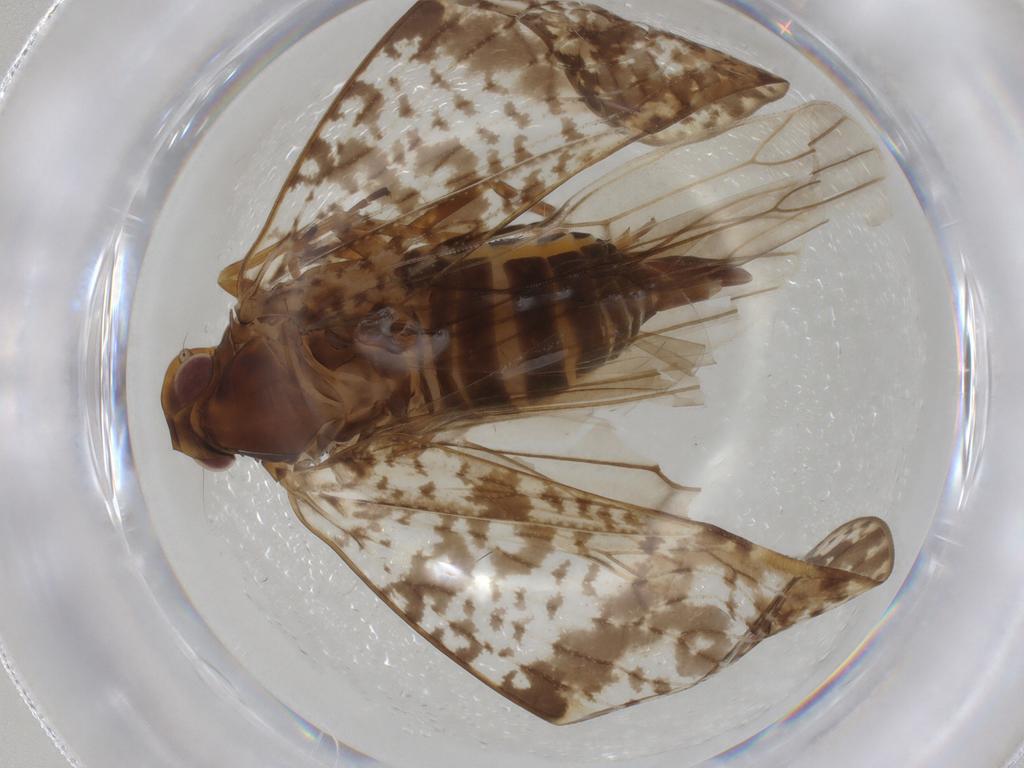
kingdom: Animalia
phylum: Arthropoda
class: Insecta
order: Hemiptera
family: Cixiidae
